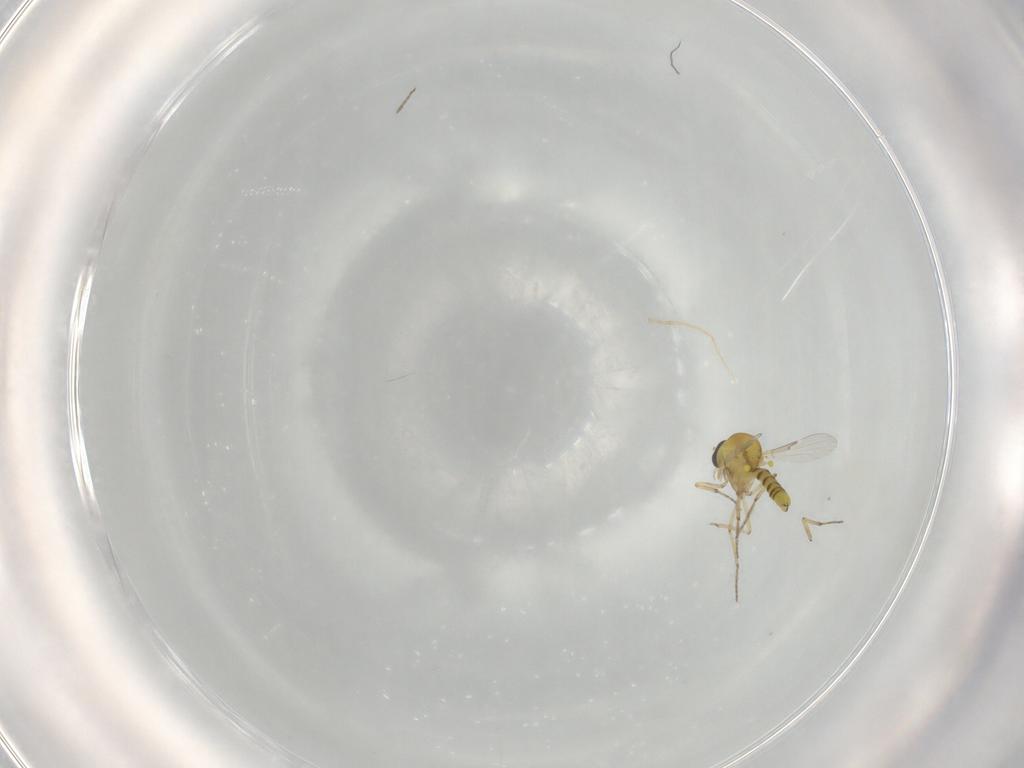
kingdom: Animalia
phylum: Arthropoda
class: Insecta
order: Diptera
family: Ceratopogonidae
